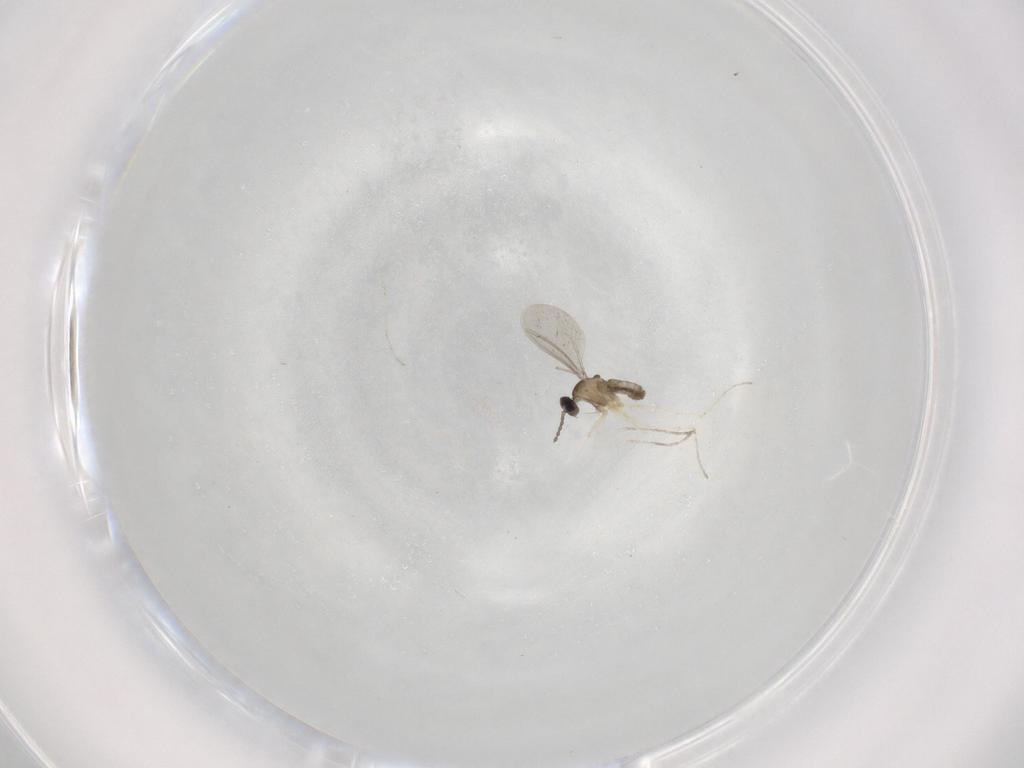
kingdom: Animalia
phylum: Arthropoda
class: Insecta
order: Diptera
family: Cecidomyiidae
